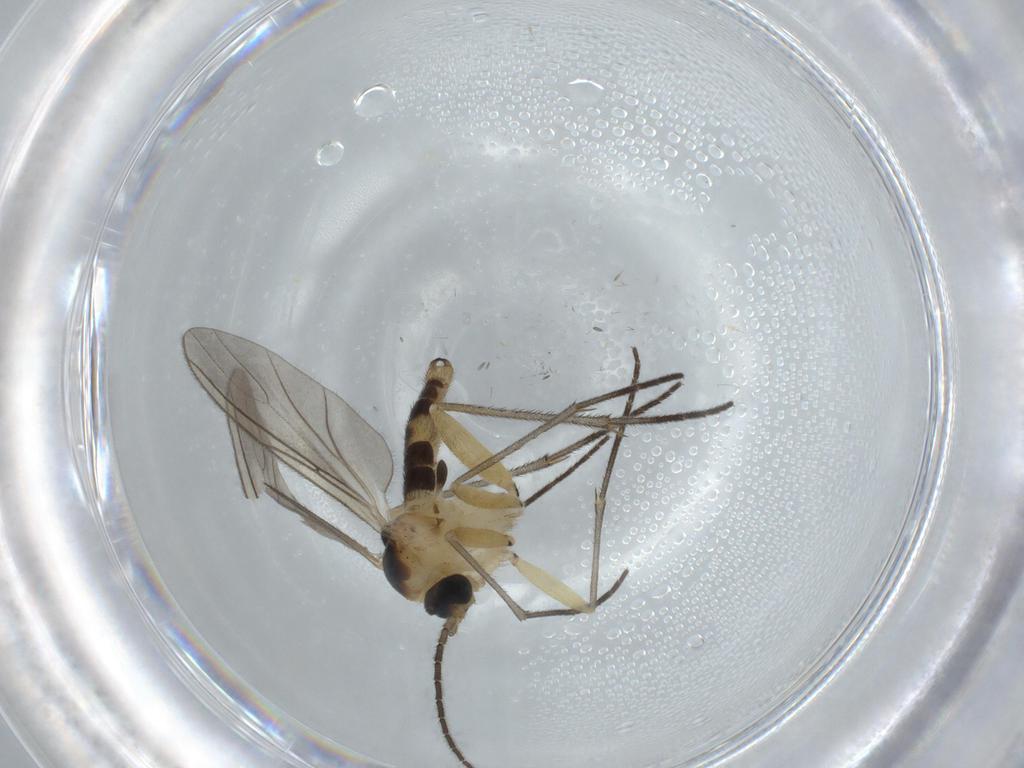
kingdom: Animalia
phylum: Arthropoda
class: Insecta
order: Diptera
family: Sciaridae
